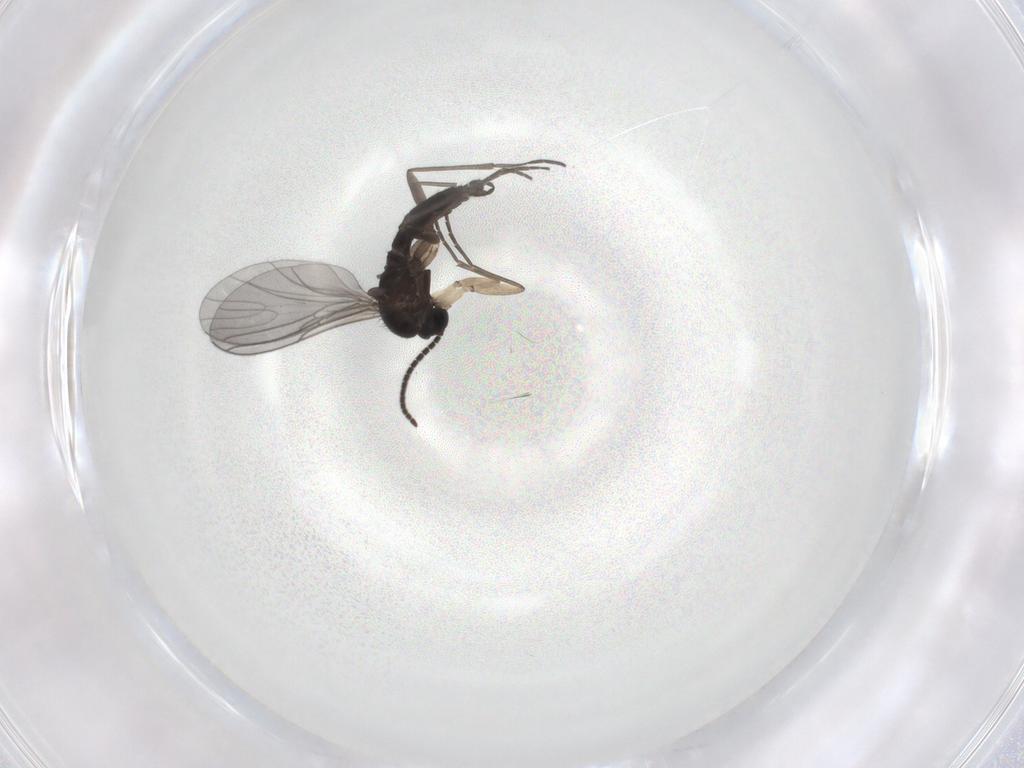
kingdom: Animalia
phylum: Arthropoda
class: Insecta
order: Diptera
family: Sciaridae
